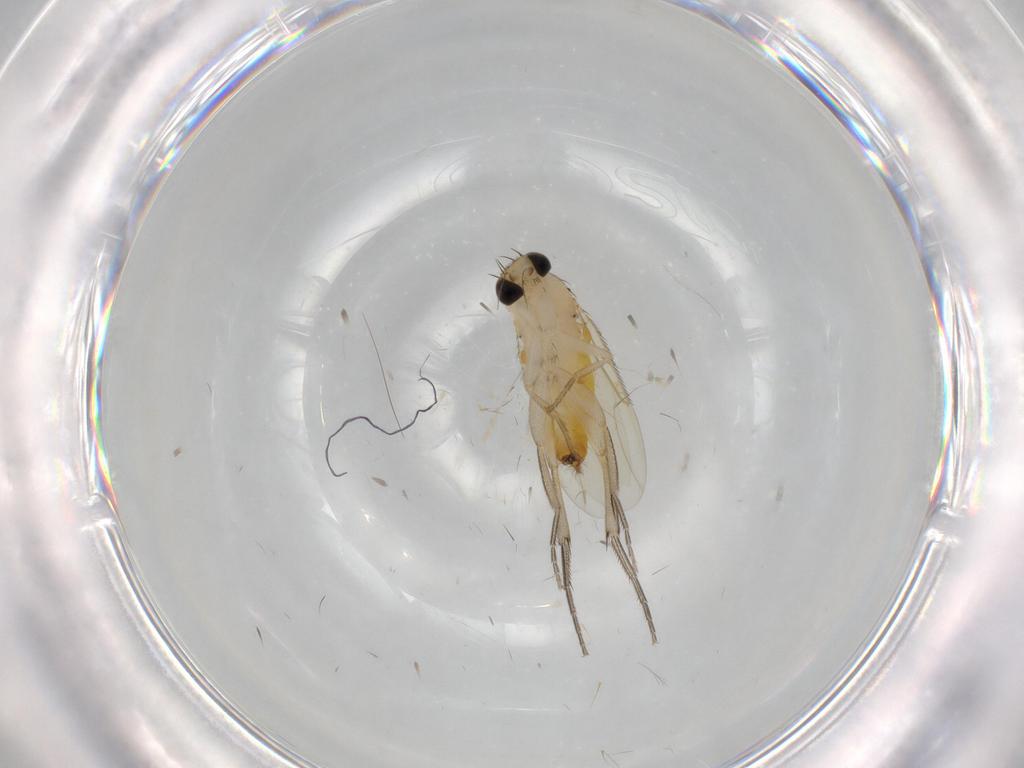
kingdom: Animalia
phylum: Arthropoda
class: Insecta
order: Diptera
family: Phoridae
